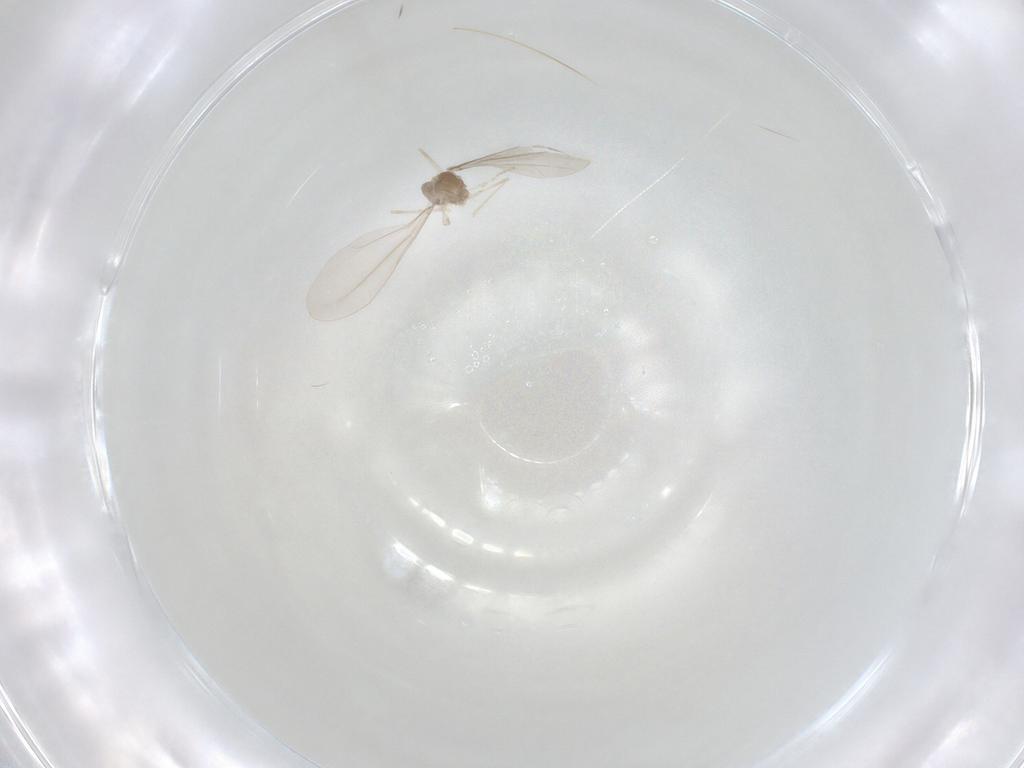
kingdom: Animalia
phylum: Arthropoda
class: Insecta
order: Diptera
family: Cecidomyiidae
